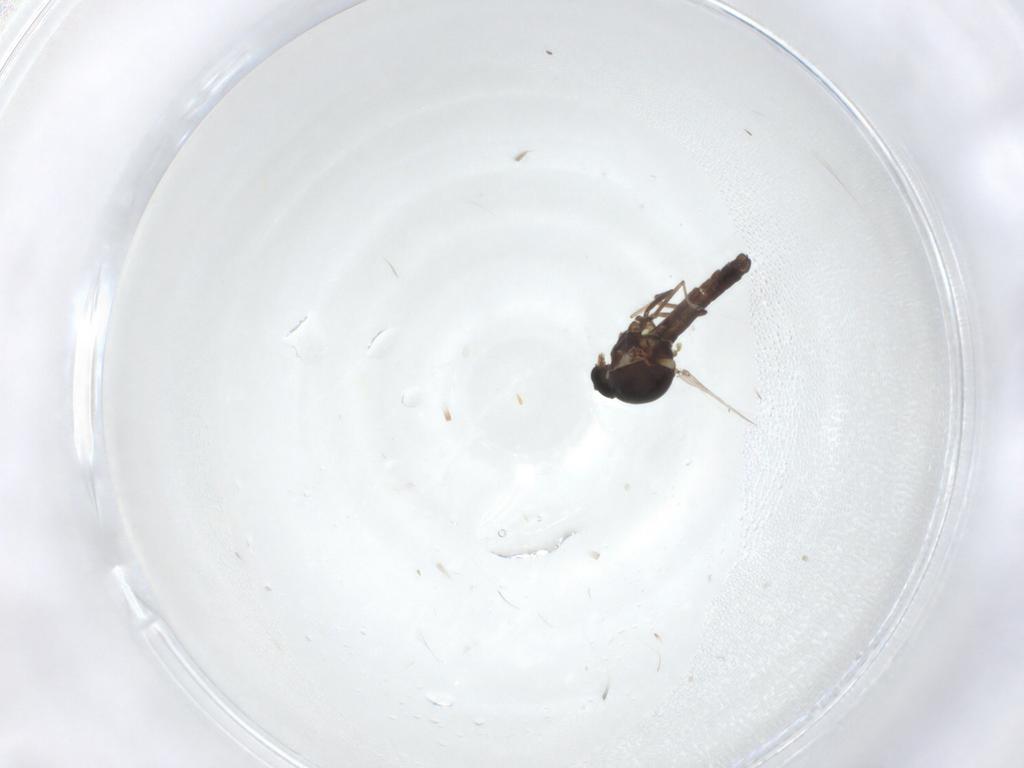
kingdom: Animalia
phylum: Arthropoda
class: Insecta
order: Diptera
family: Ceratopogonidae
